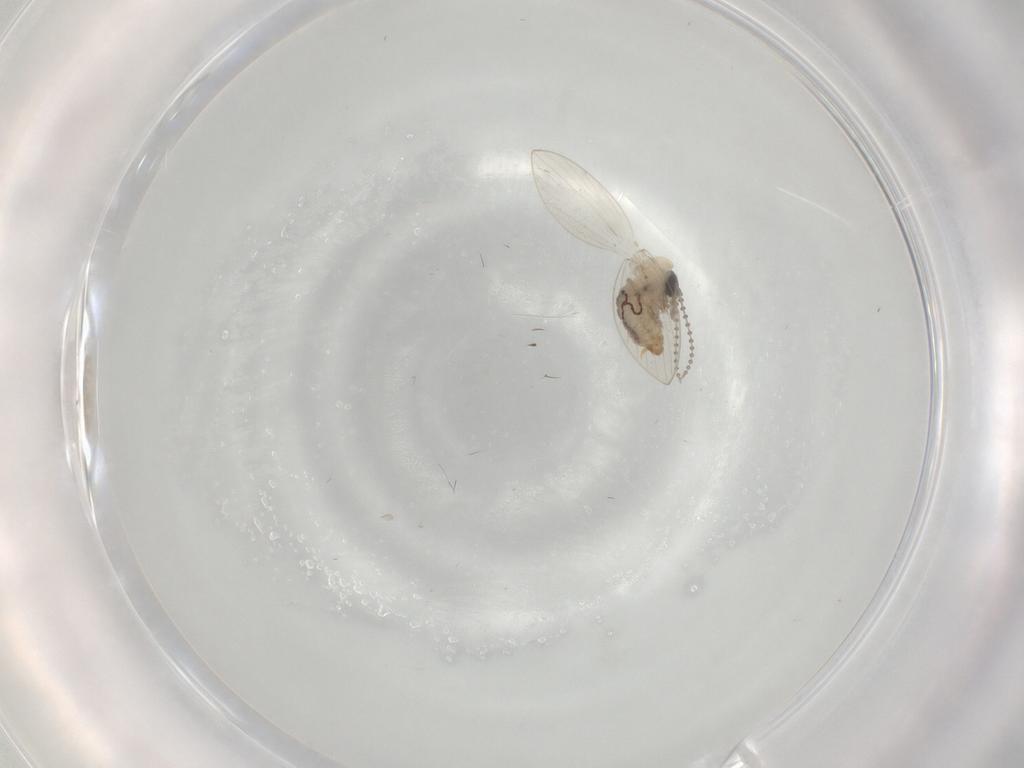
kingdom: Animalia
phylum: Arthropoda
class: Insecta
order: Diptera
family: Psychodidae
